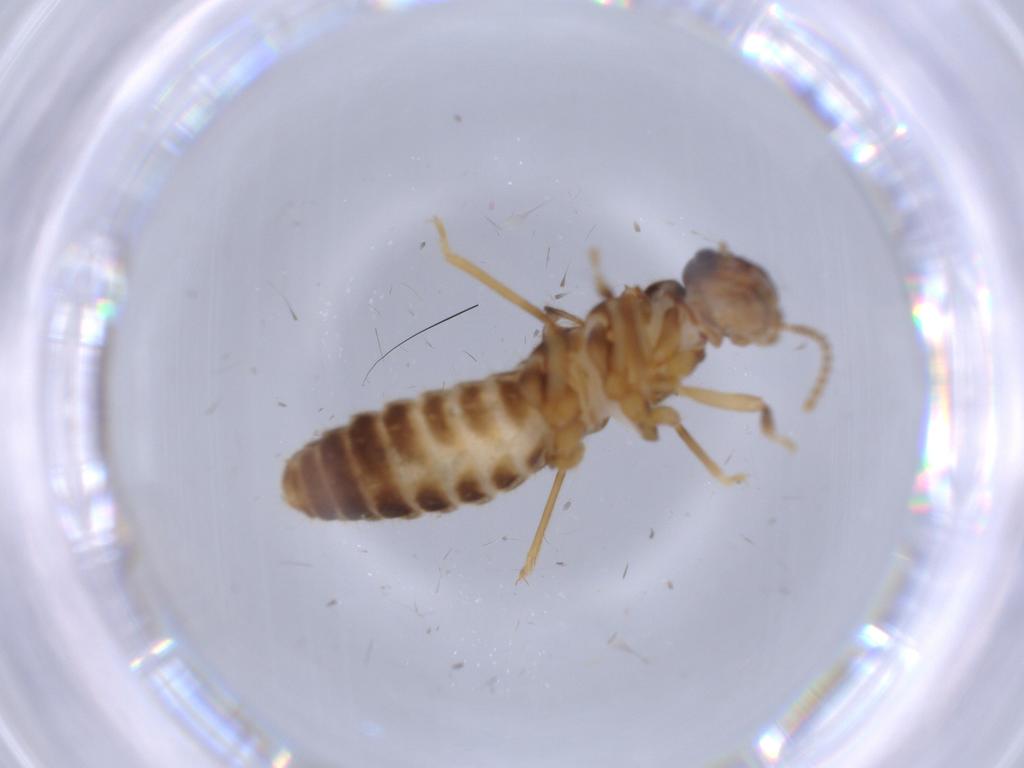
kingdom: Animalia
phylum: Arthropoda
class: Insecta
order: Blattodea
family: Termitidae
